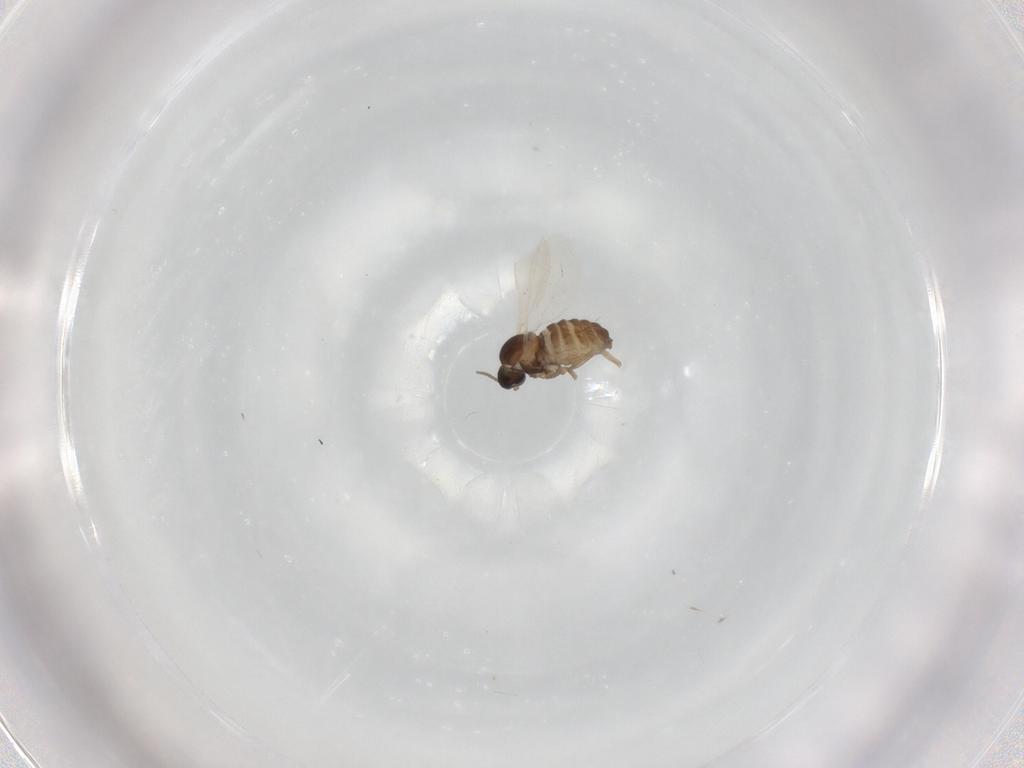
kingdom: Animalia
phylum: Arthropoda
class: Insecta
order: Diptera
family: Cecidomyiidae
